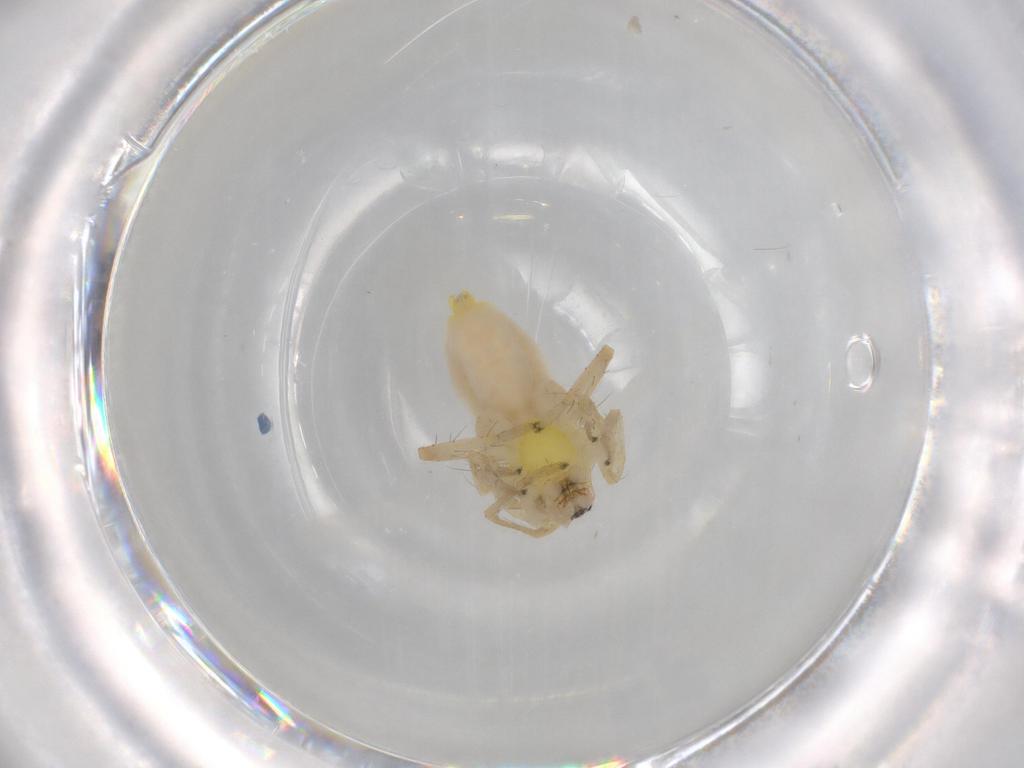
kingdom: Animalia
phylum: Arthropoda
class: Arachnida
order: Araneae
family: Anyphaenidae
